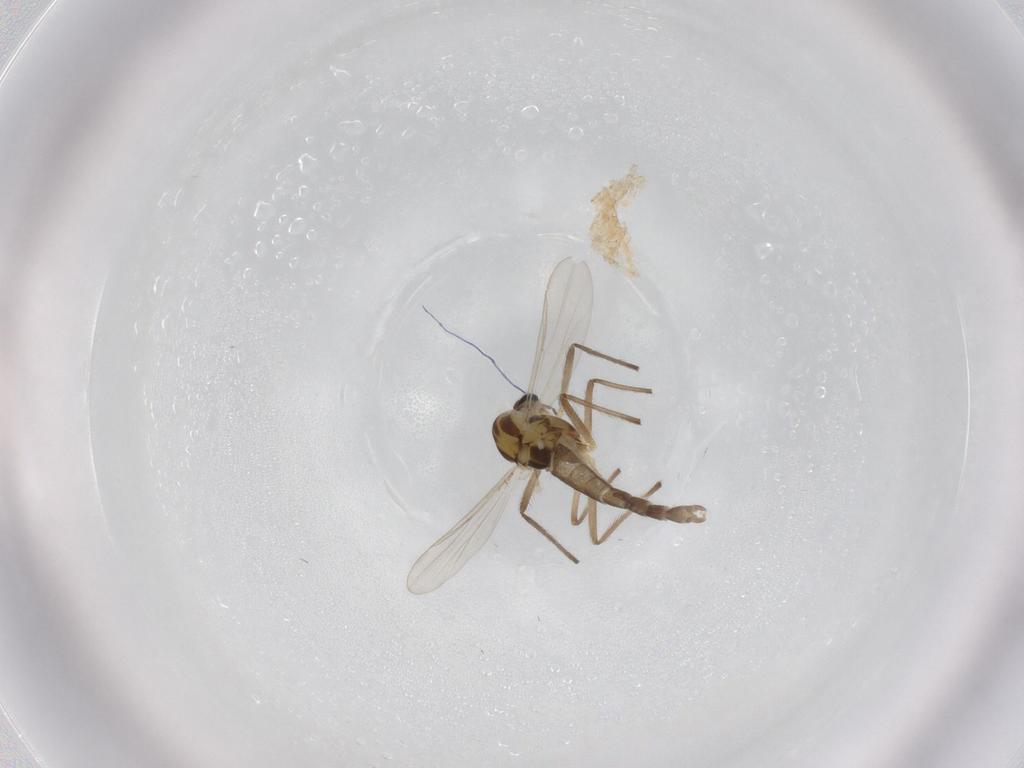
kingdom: Animalia
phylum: Arthropoda
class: Insecta
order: Diptera
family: Chironomidae
